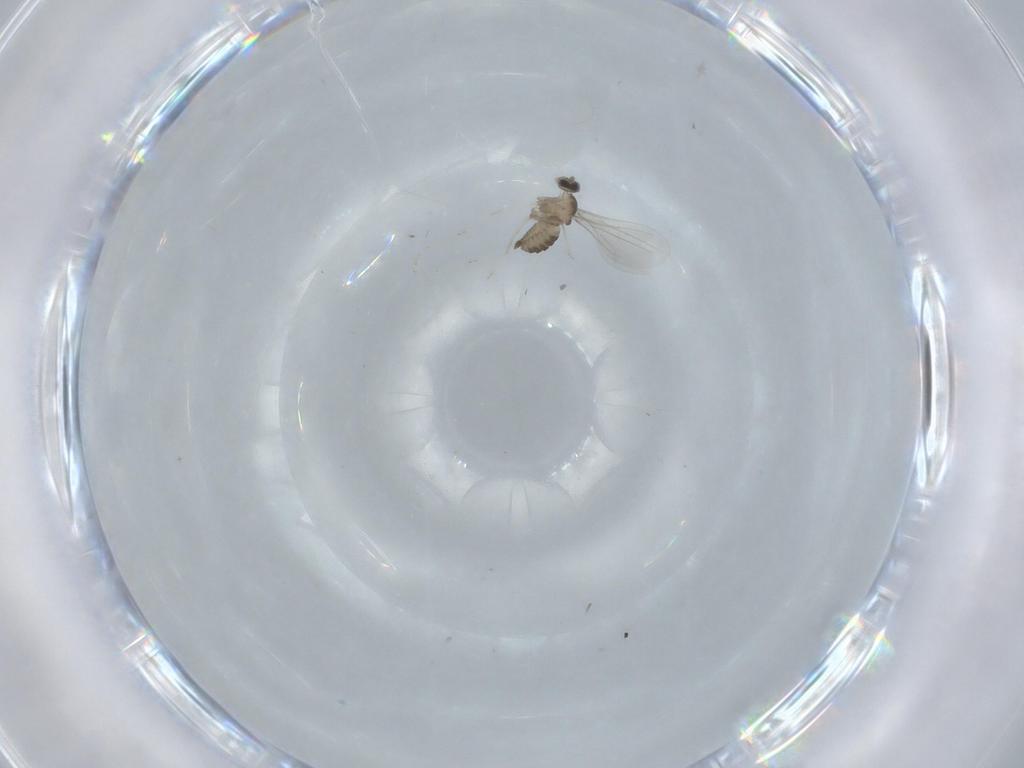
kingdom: Animalia
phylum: Arthropoda
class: Insecta
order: Diptera
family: Cecidomyiidae
